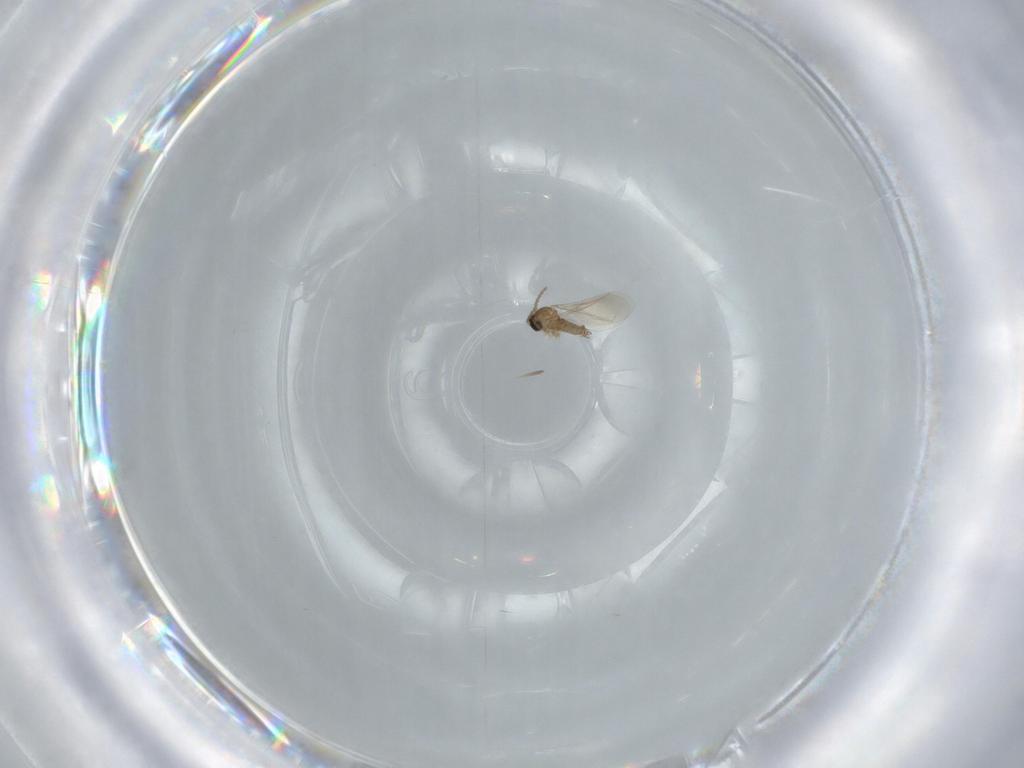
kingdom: Animalia
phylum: Arthropoda
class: Insecta
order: Diptera
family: Cecidomyiidae
